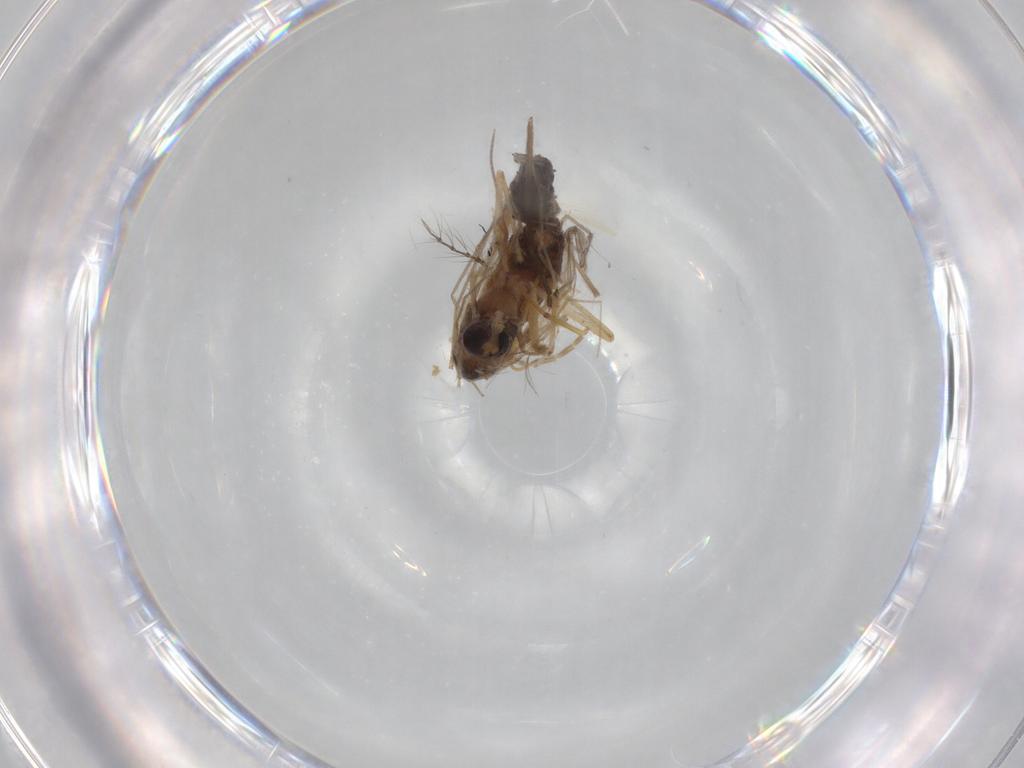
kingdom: Animalia
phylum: Arthropoda
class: Insecta
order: Diptera
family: Chironomidae
